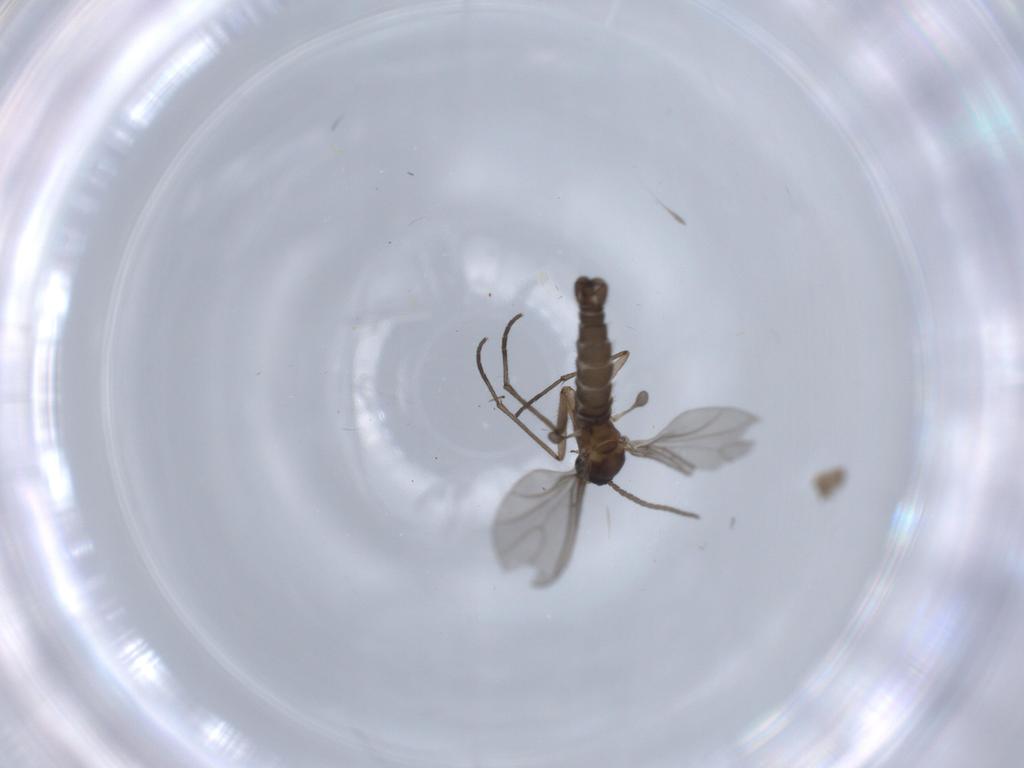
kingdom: Animalia
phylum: Arthropoda
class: Insecta
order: Diptera
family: Sciaridae
